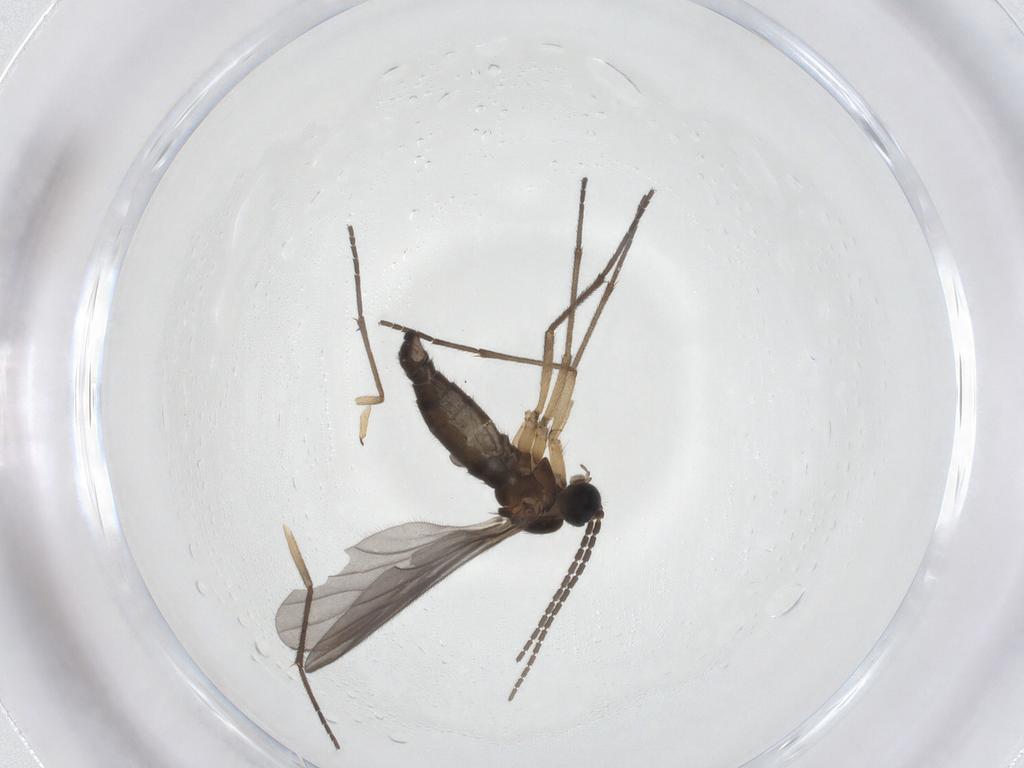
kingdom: Animalia
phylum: Arthropoda
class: Insecta
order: Diptera
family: Sciaridae
